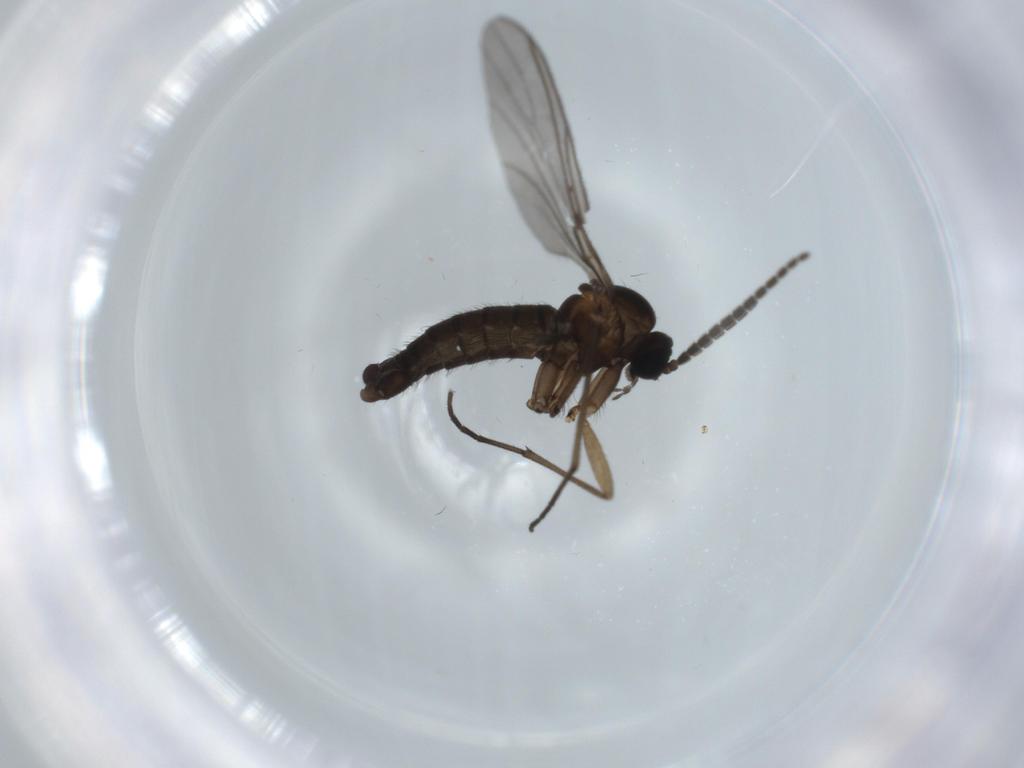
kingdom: Animalia
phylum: Arthropoda
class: Insecta
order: Diptera
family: Sciaridae
